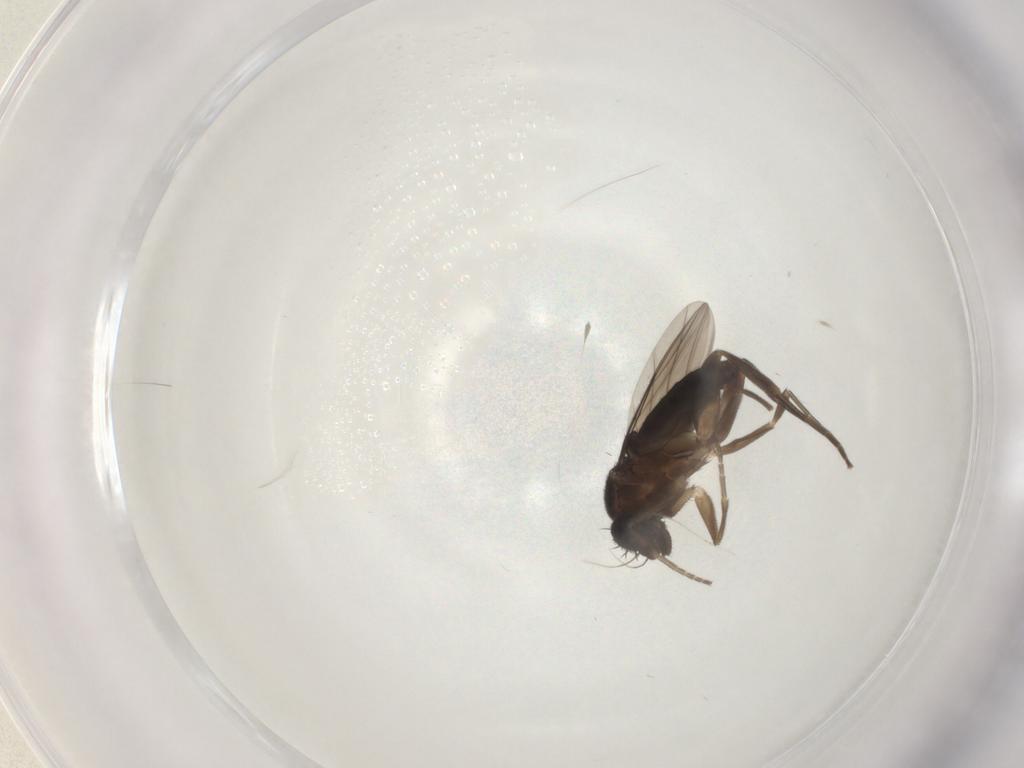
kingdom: Animalia
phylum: Arthropoda
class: Insecta
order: Diptera
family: Phoridae
